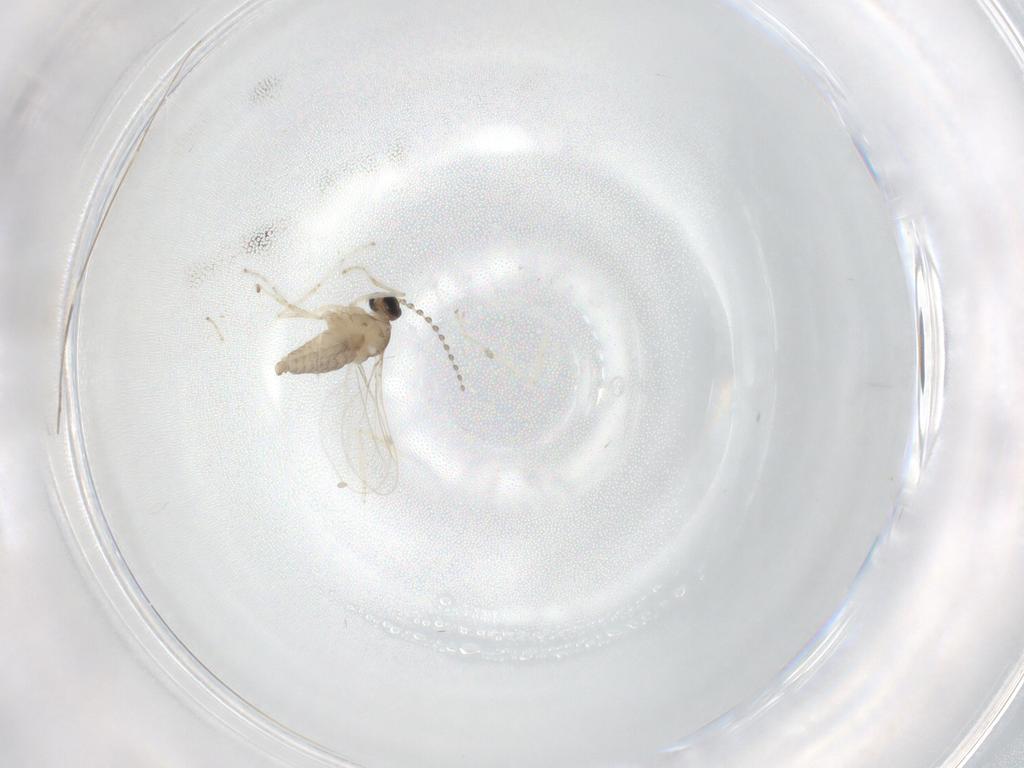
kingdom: Animalia
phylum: Arthropoda
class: Insecta
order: Diptera
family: Cecidomyiidae
